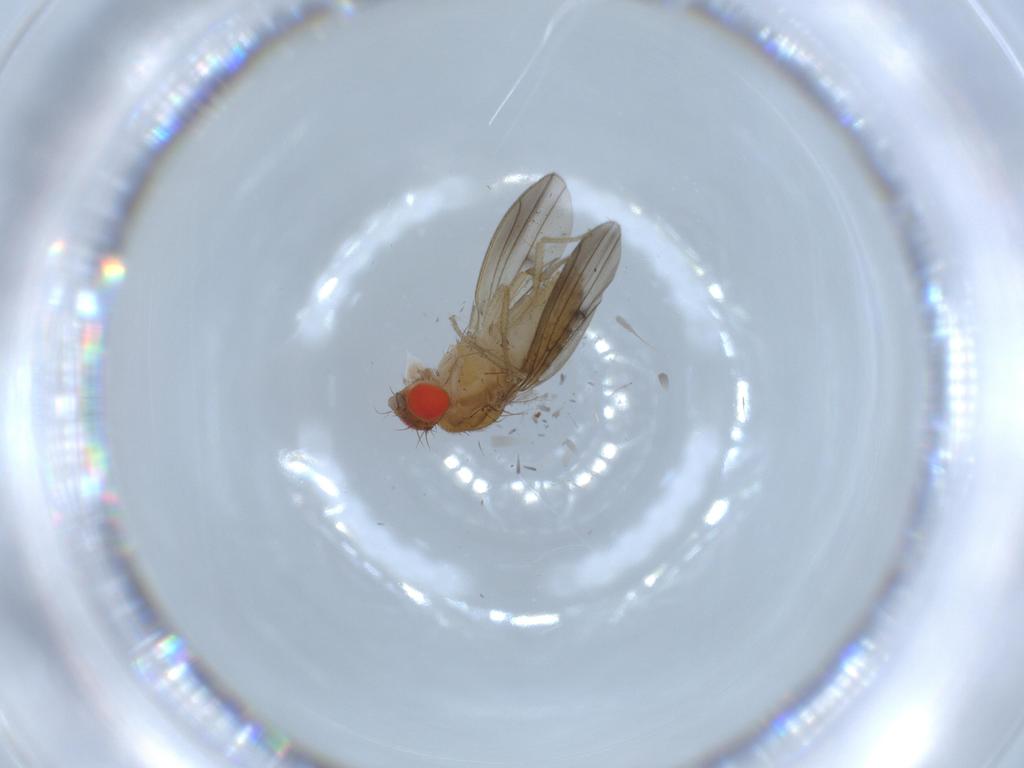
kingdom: Animalia
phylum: Arthropoda
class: Insecta
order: Diptera
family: Drosophilidae
